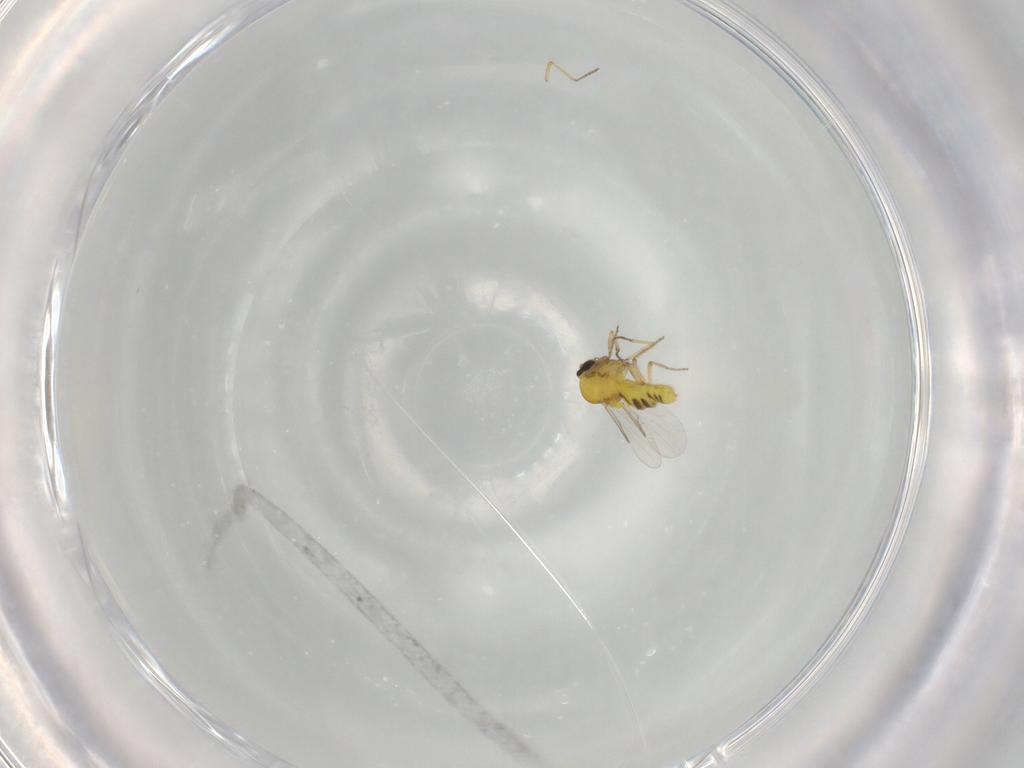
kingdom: Animalia
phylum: Arthropoda
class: Insecta
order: Diptera
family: Ceratopogonidae
